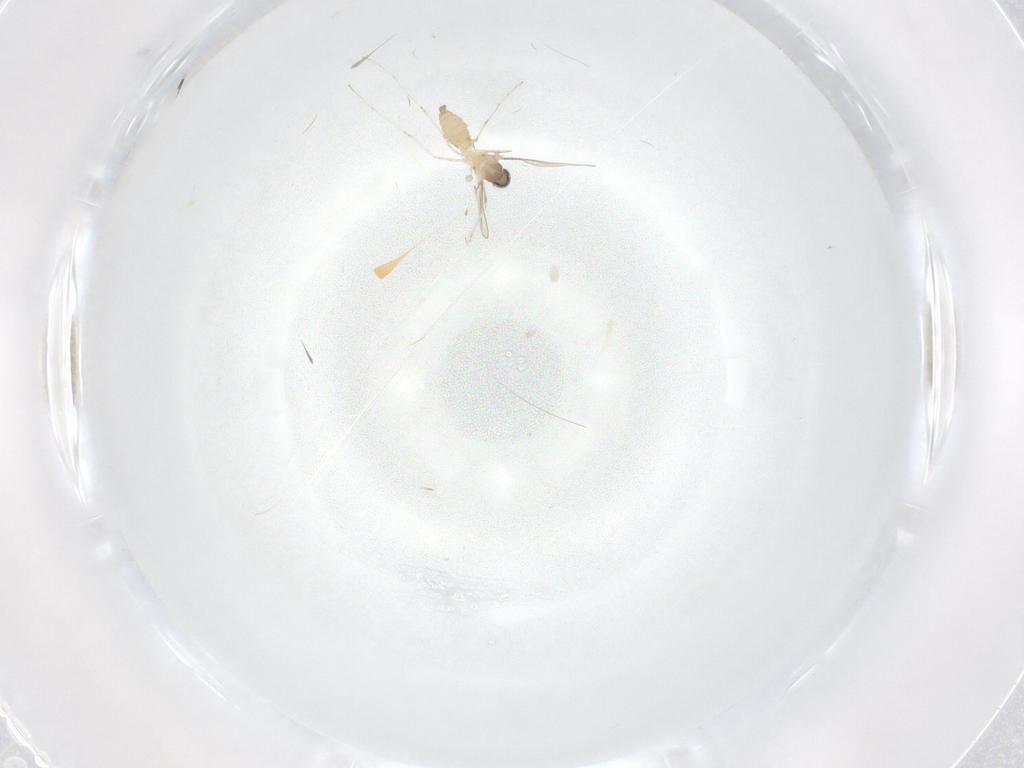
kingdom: Animalia
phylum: Arthropoda
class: Insecta
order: Diptera
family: Cecidomyiidae
